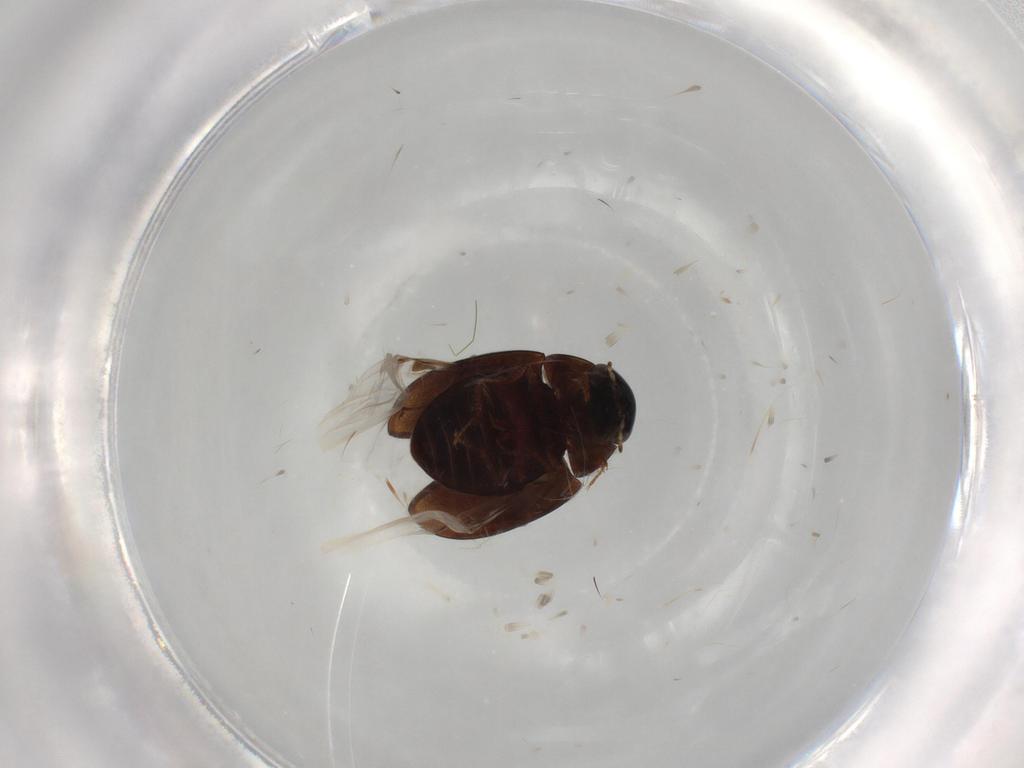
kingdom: Animalia
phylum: Arthropoda
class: Insecta
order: Coleoptera
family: Hydrophilidae
